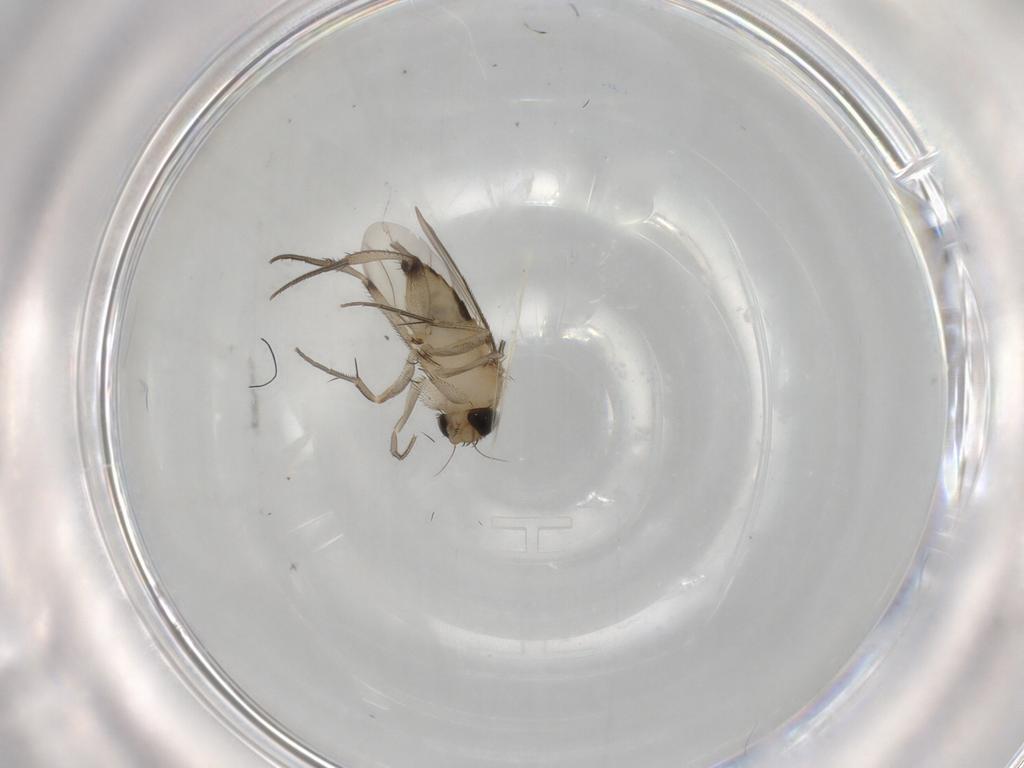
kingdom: Animalia
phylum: Arthropoda
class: Insecta
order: Diptera
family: Phoridae
